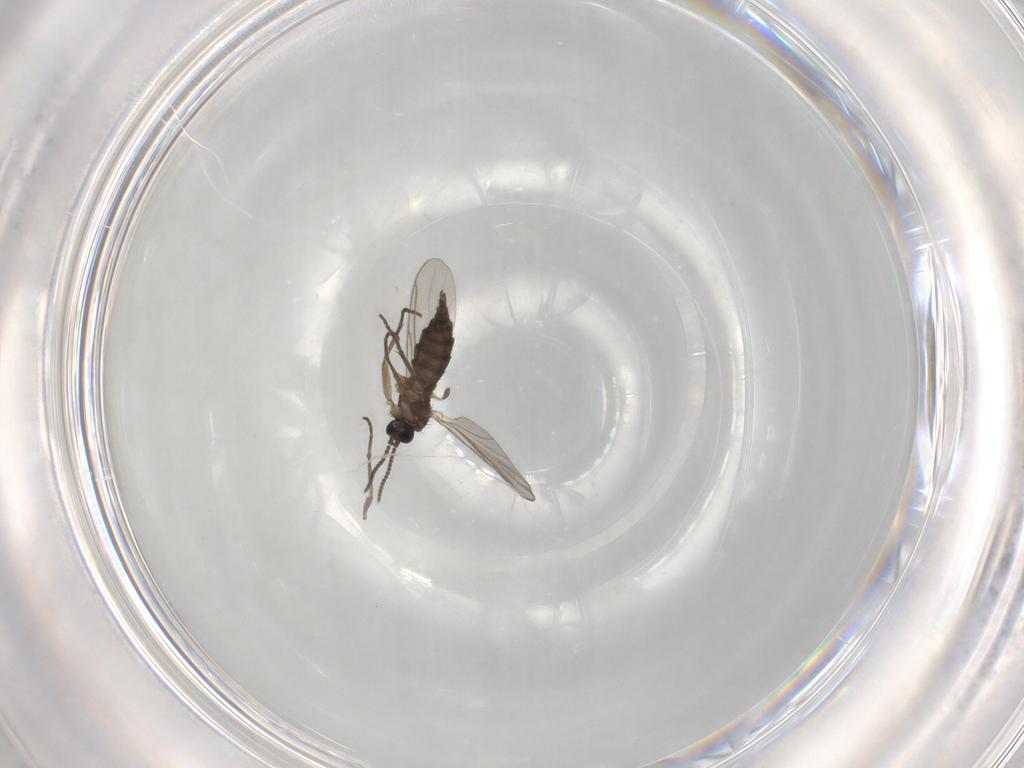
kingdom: Animalia
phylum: Arthropoda
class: Insecta
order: Diptera
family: Sciaridae
